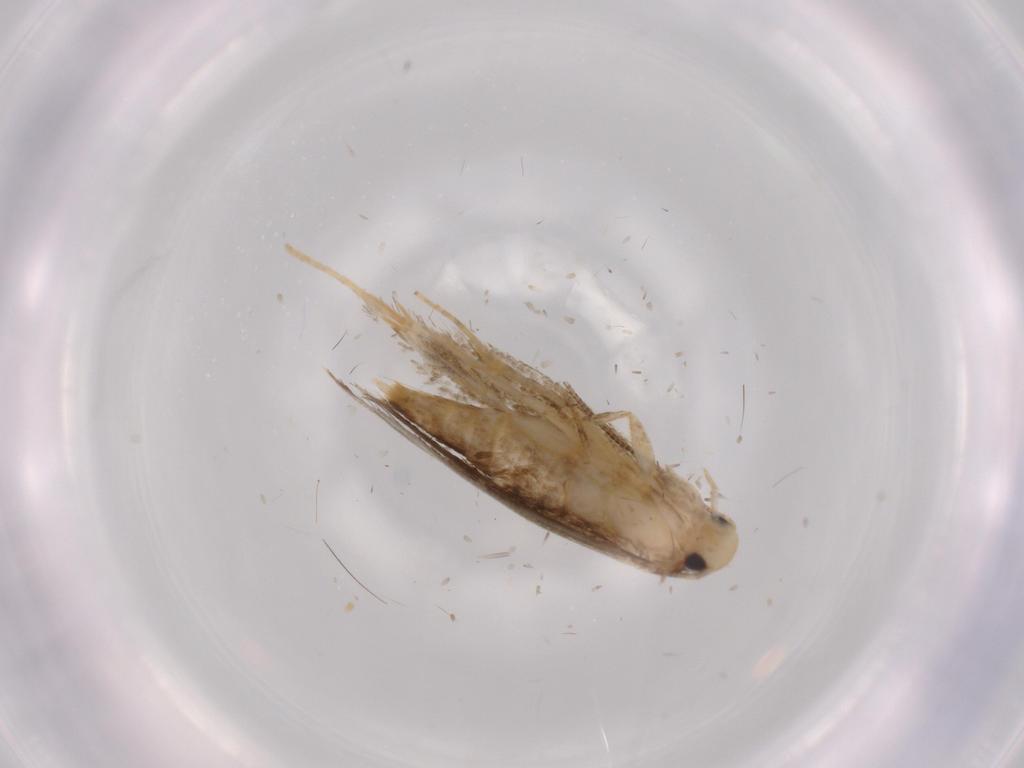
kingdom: Animalia
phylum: Arthropoda
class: Insecta
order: Lepidoptera
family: Tineidae
